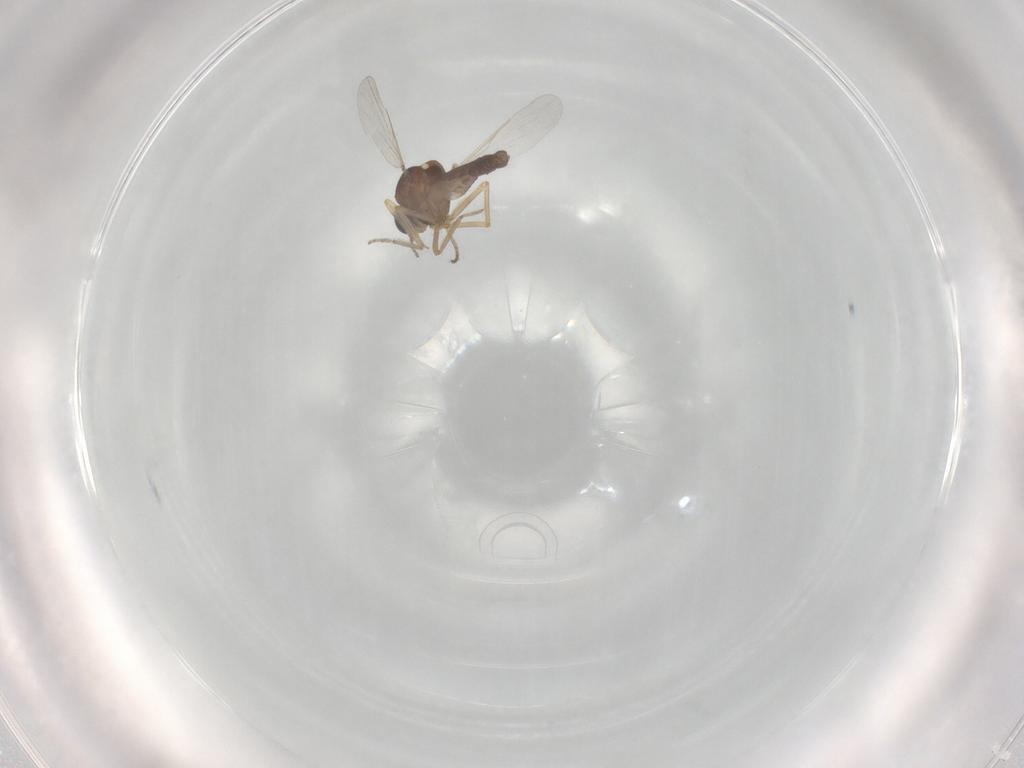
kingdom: Animalia
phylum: Arthropoda
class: Insecta
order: Diptera
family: Ceratopogonidae
